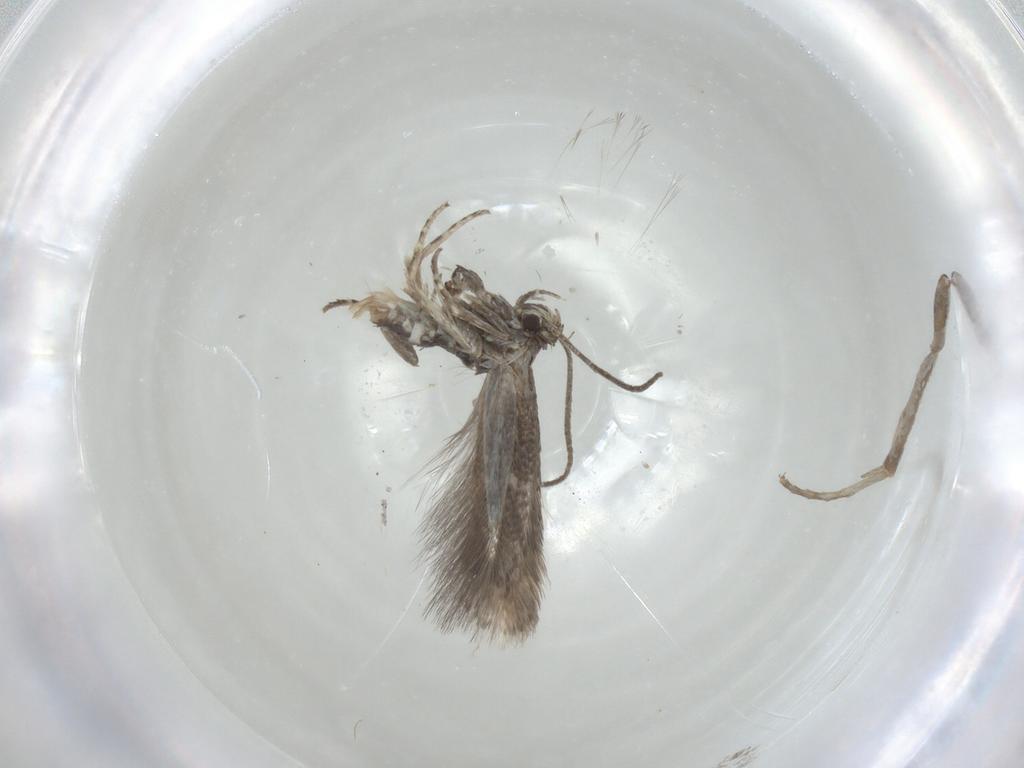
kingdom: Animalia
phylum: Arthropoda
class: Insecta
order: Lepidoptera
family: Elachistidae
